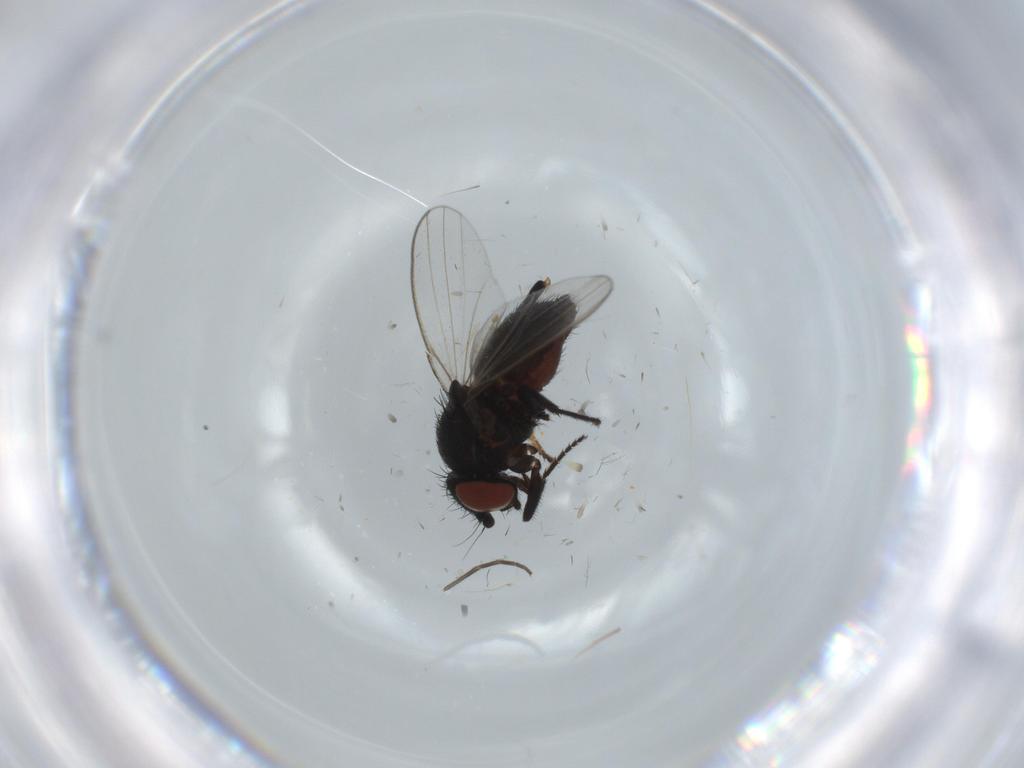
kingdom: Animalia
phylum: Arthropoda
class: Insecta
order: Diptera
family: Ephydridae
